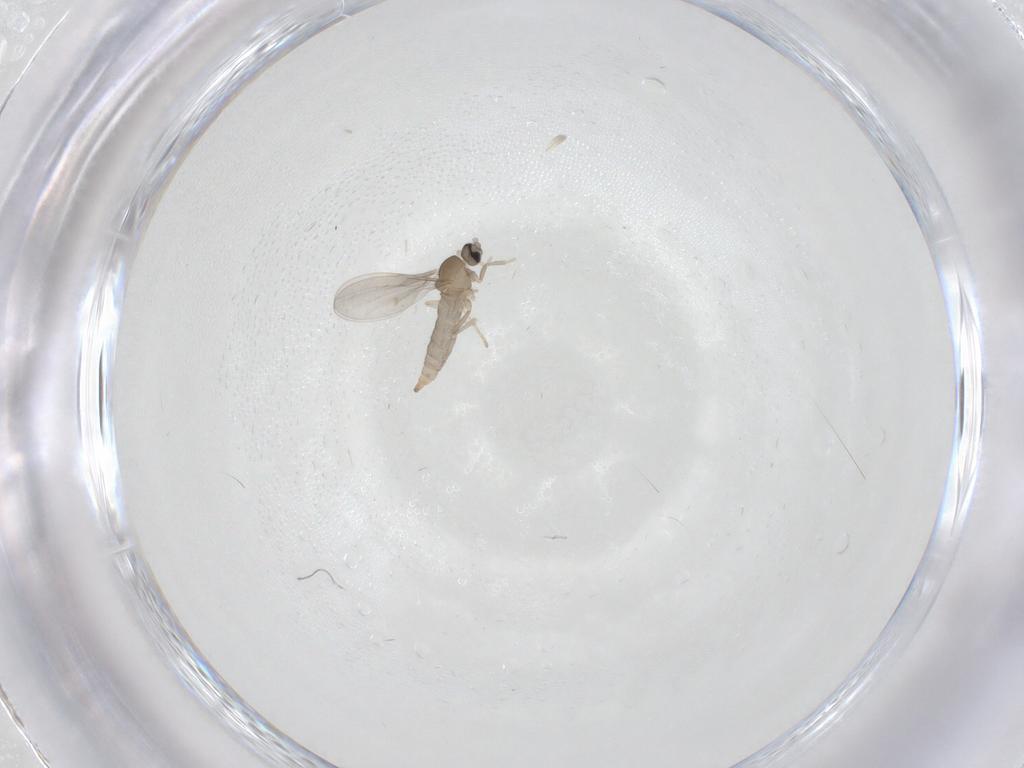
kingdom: Animalia
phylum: Arthropoda
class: Insecta
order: Diptera
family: Cecidomyiidae
